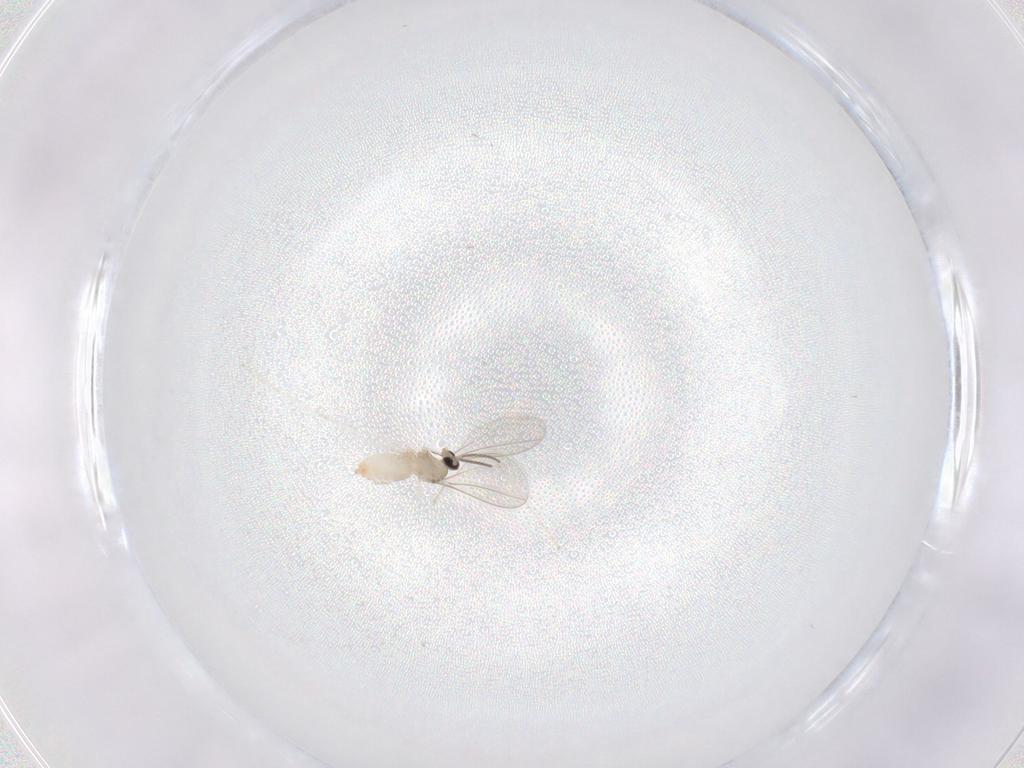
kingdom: Animalia
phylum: Arthropoda
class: Insecta
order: Diptera
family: Cecidomyiidae
